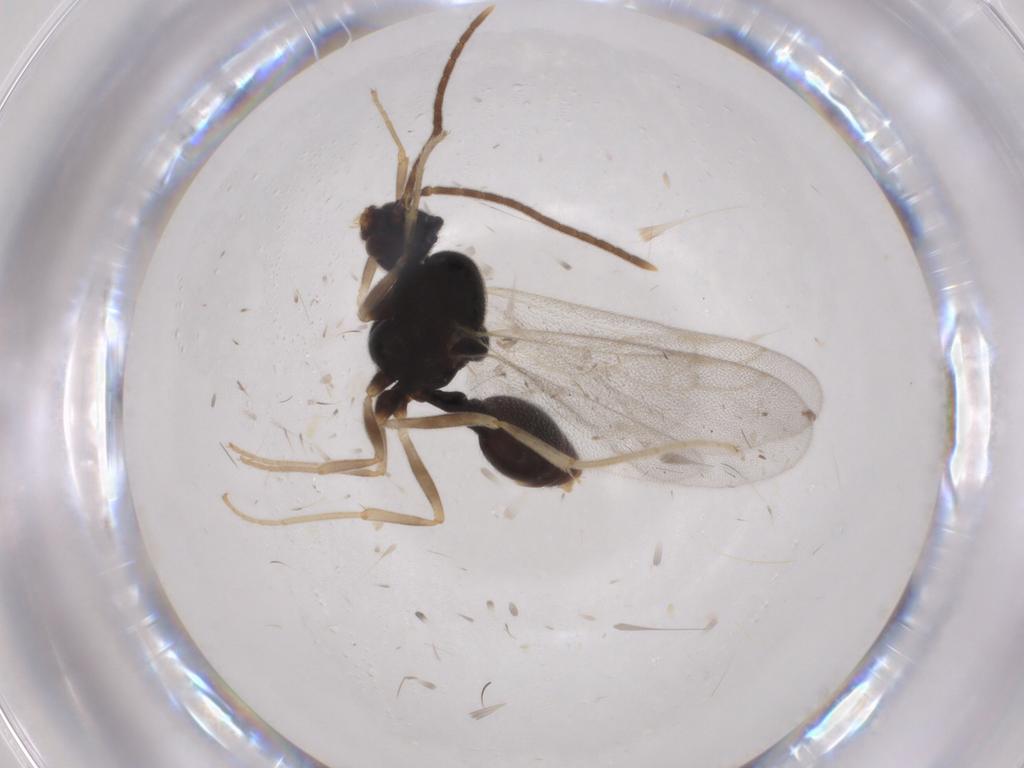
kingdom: Animalia
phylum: Arthropoda
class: Insecta
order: Hymenoptera
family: Ampulicidae
